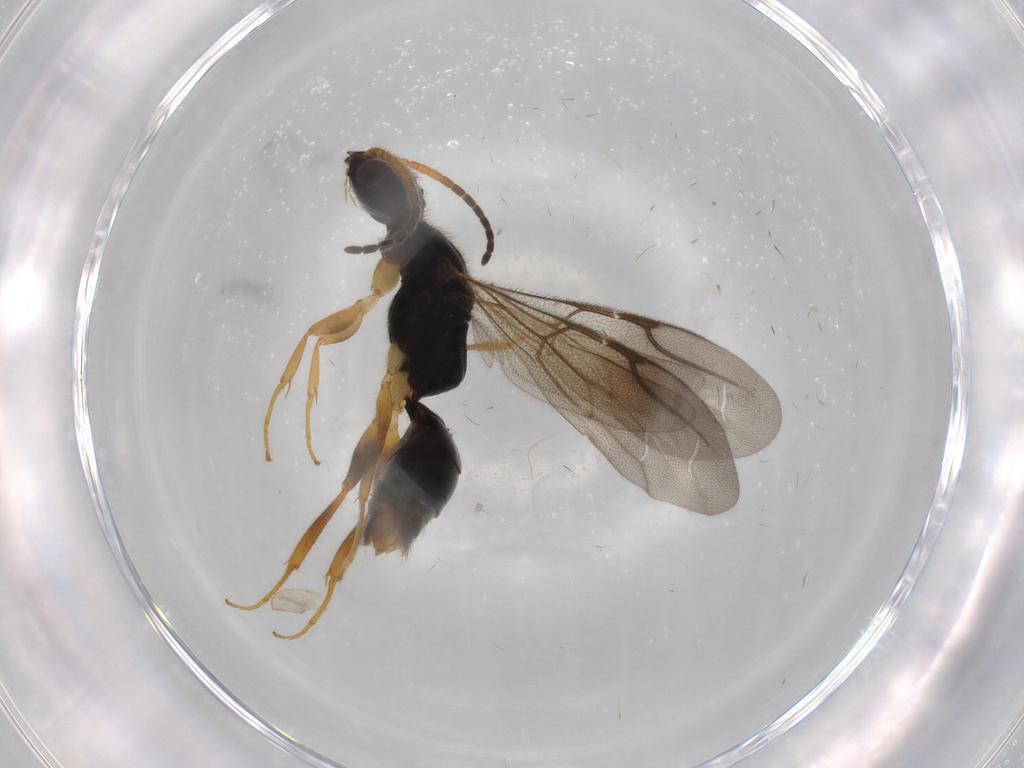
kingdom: Animalia
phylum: Arthropoda
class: Insecta
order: Hymenoptera
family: Bethylidae
